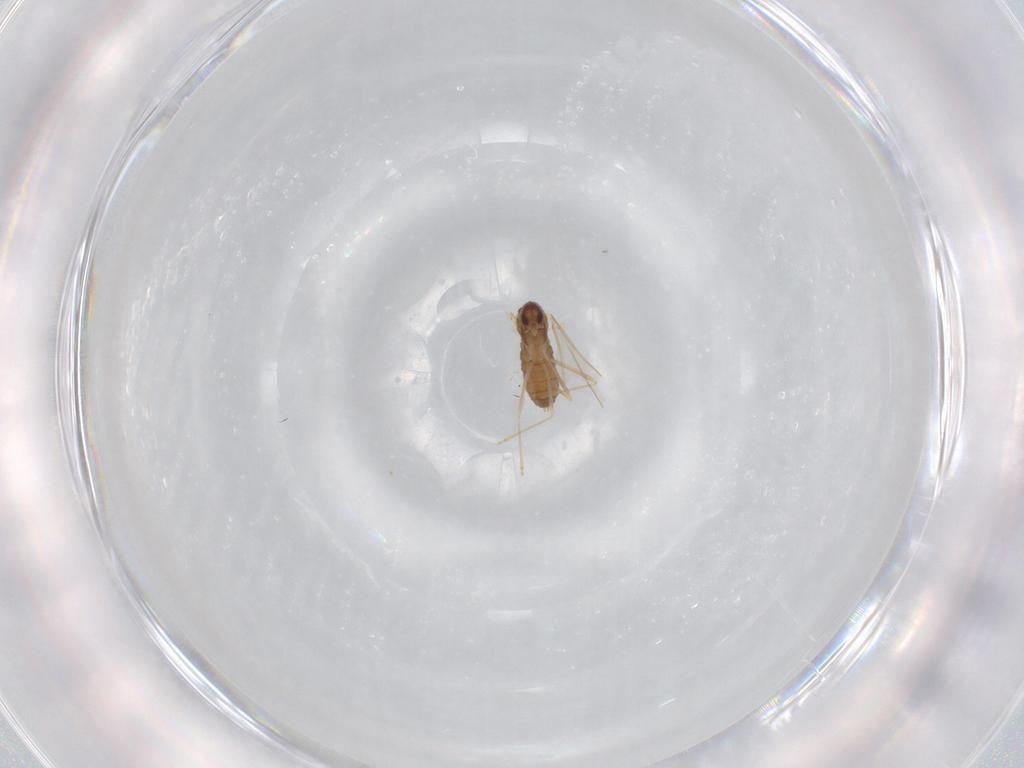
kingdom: Animalia
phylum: Arthropoda
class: Insecta
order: Diptera
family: Cecidomyiidae
